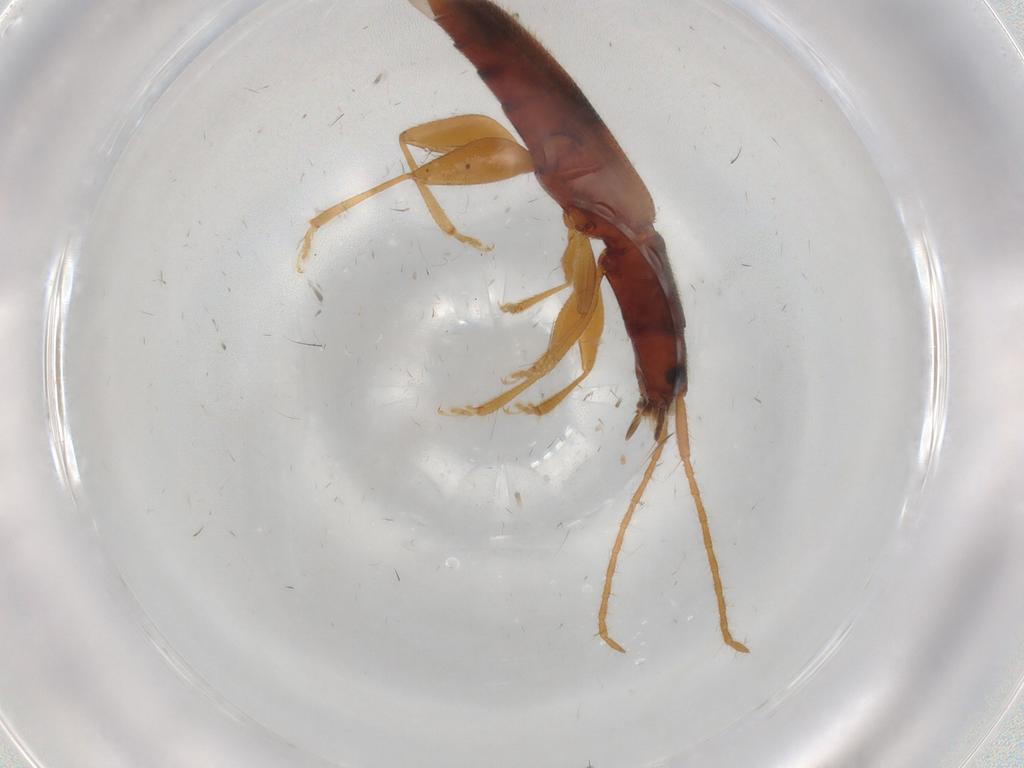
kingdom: Animalia
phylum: Arthropoda
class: Insecta
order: Coleoptera
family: Silvanidae
